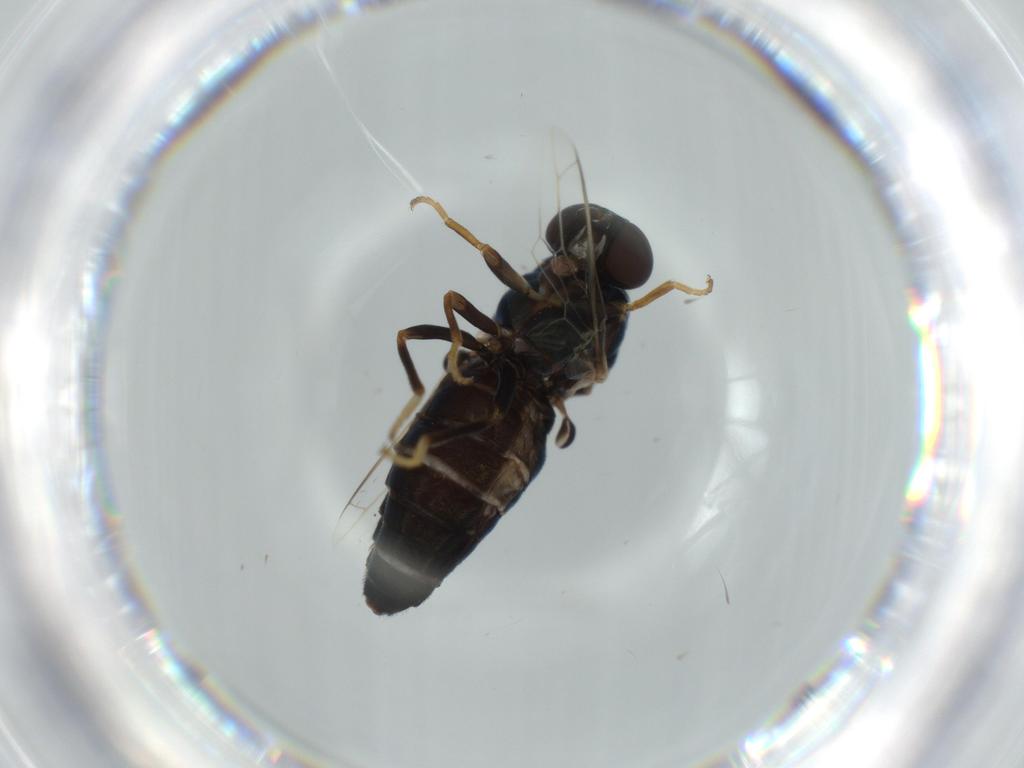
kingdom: Animalia
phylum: Arthropoda
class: Insecta
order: Diptera
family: Scenopinidae
